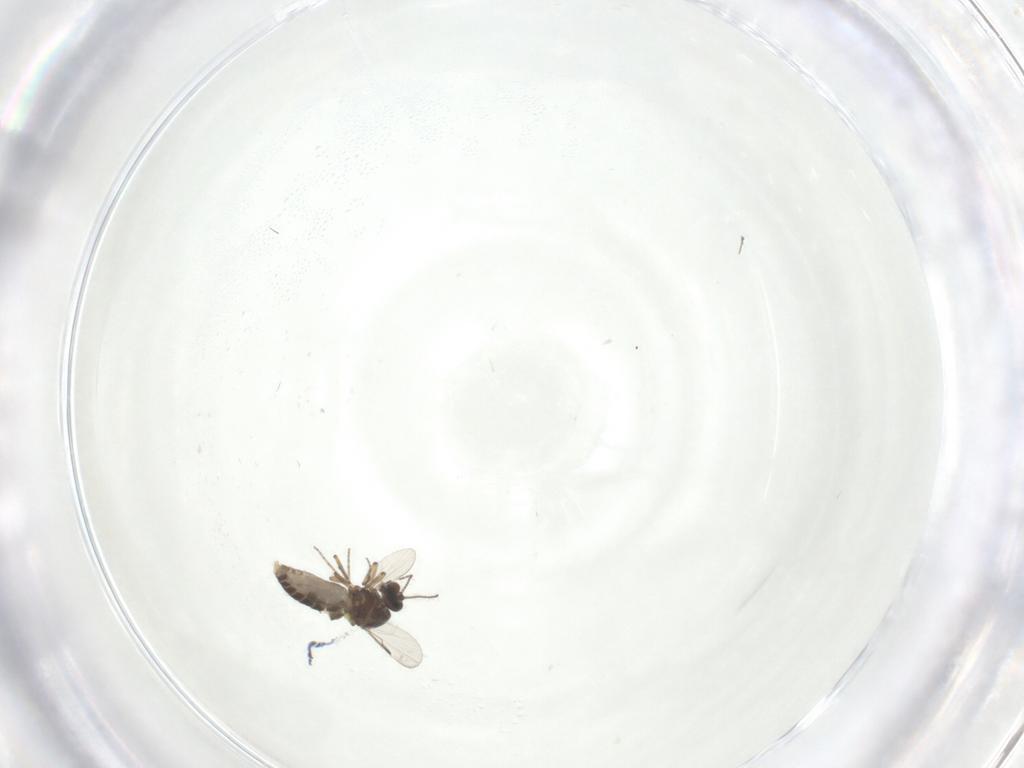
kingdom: Animalia
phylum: Arthropoda
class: Insecta
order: Diptera
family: Ceratopogonidae
